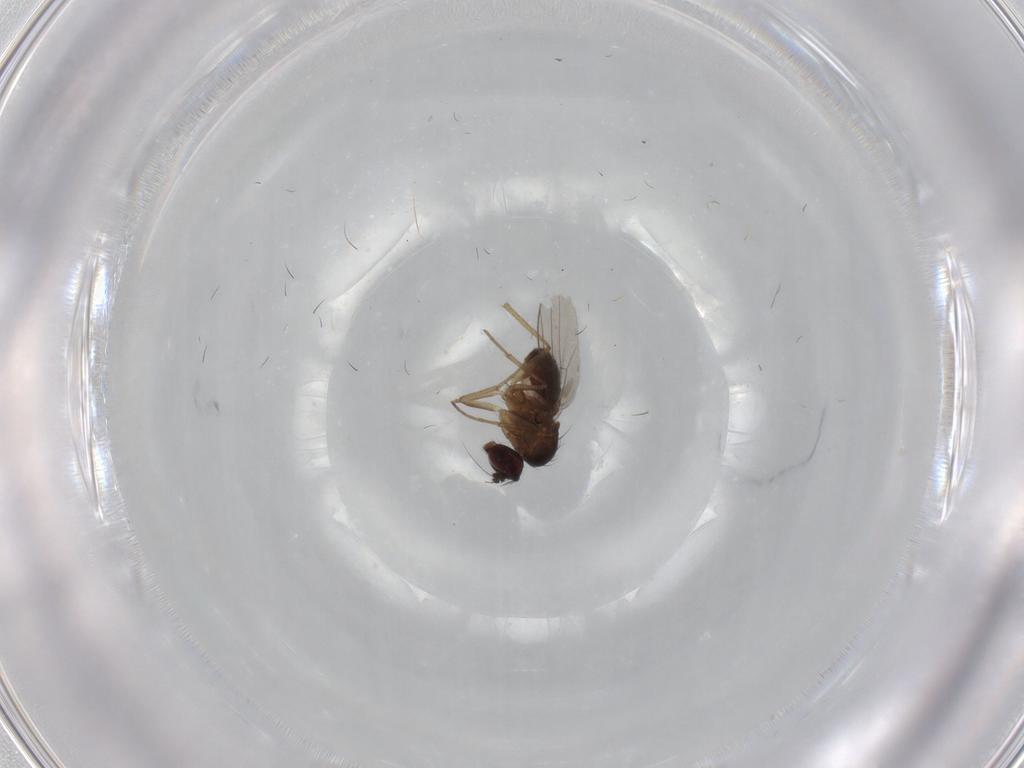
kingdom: Animalia
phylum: Arthropoda
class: Insecta
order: Diptera
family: Dolichopodidae
